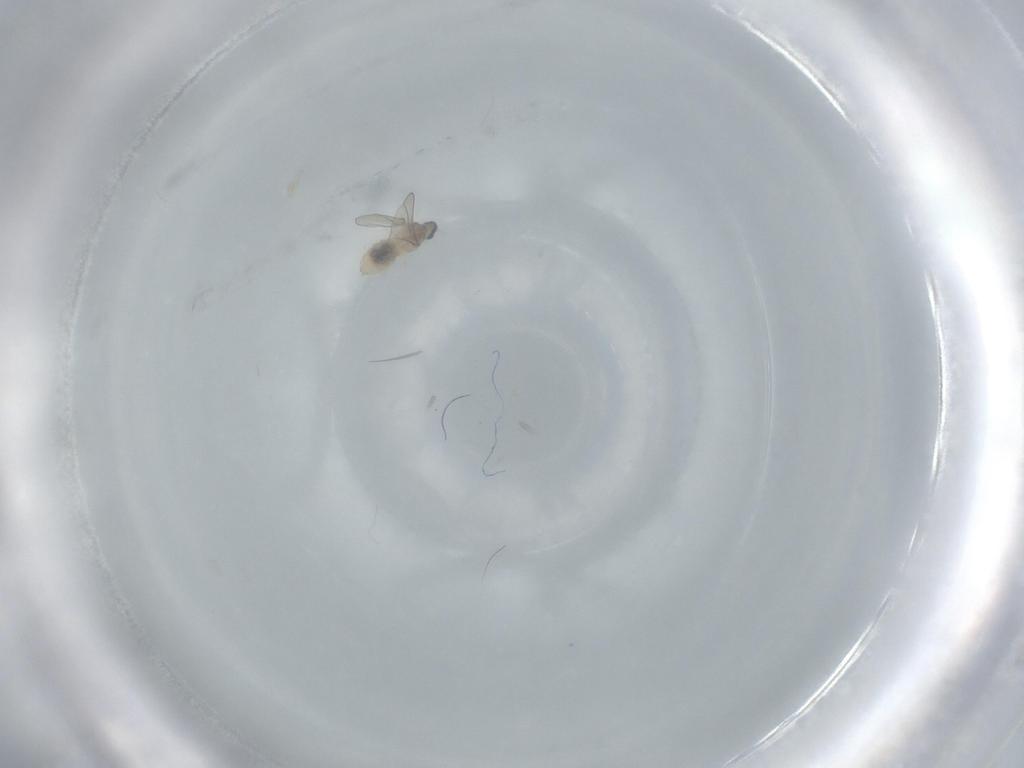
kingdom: Animalia
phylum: Arthropoda
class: Insecta
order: Diptera
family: Cecidomyiidae
